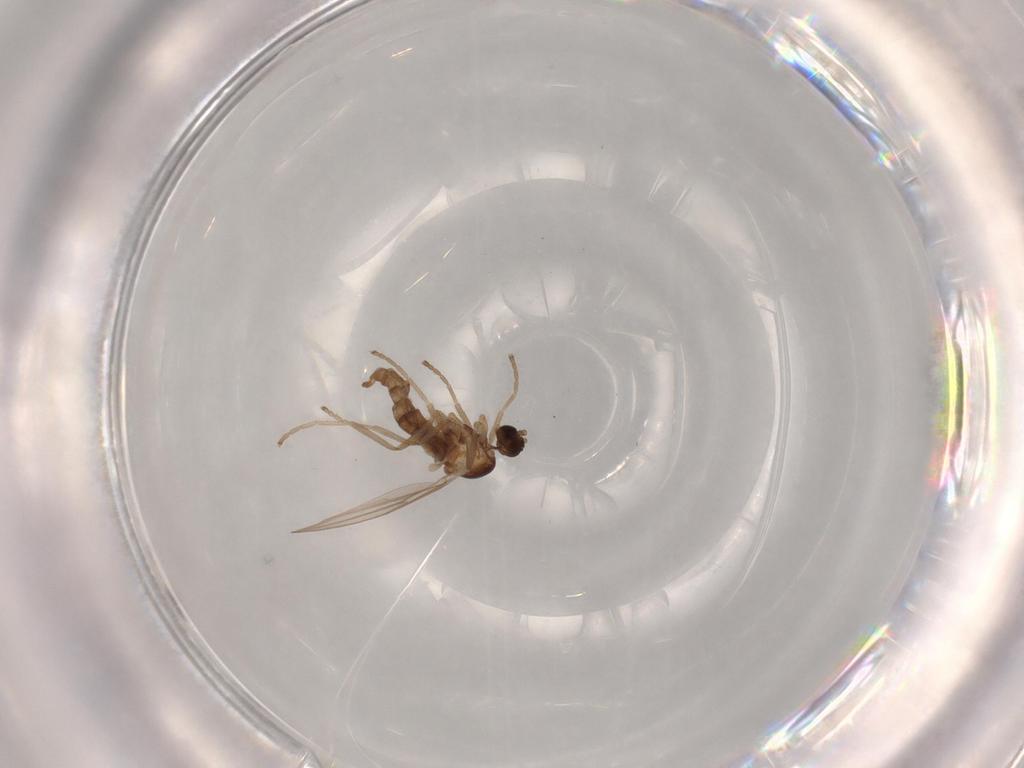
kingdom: Animalia
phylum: Arthropoda
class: Insecta
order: Diptera
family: Cecidomyiidae
